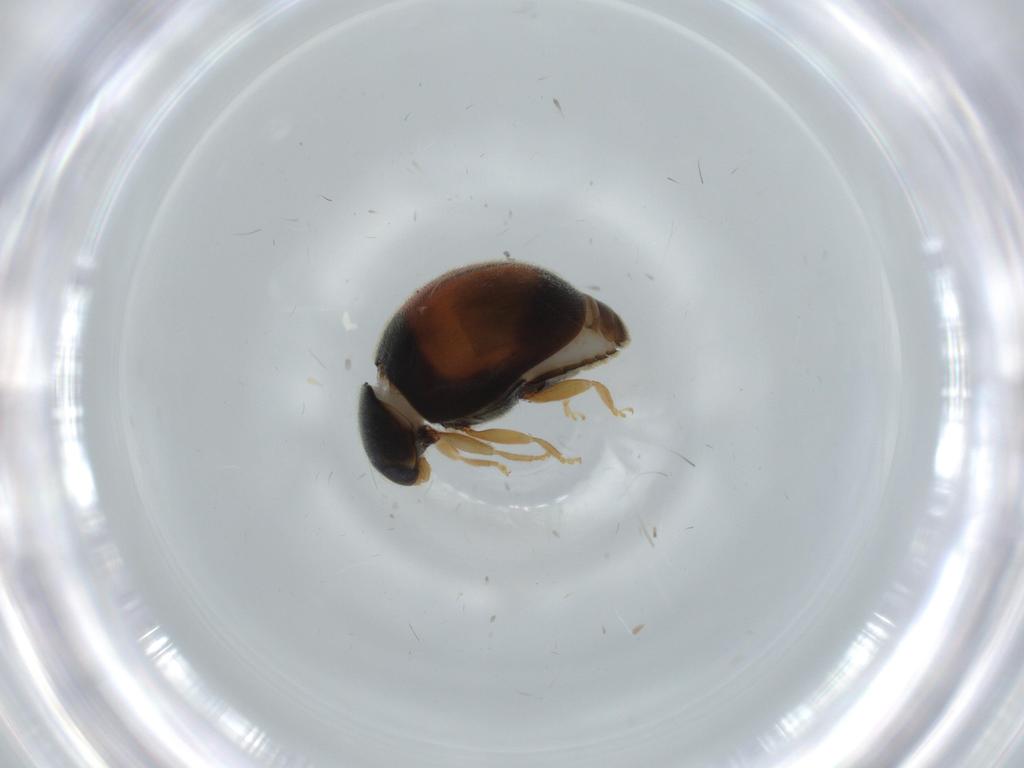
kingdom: Animalia
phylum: Arthropoda
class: Insecta
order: Coleoptera
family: Coccinellidae
